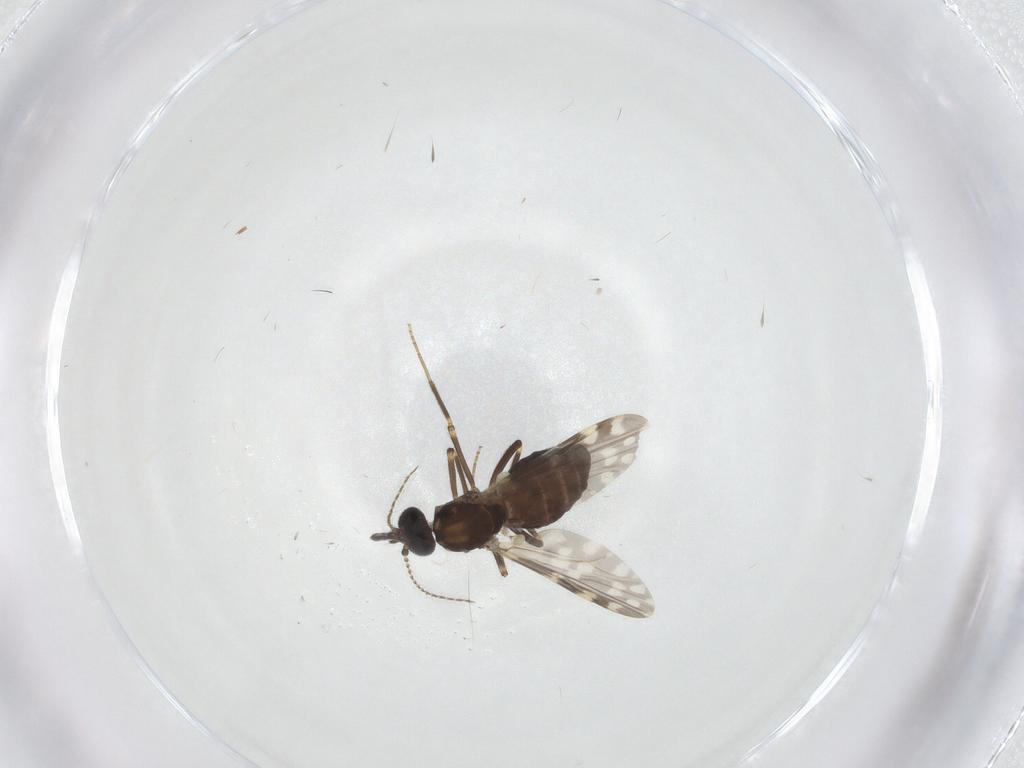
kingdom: Animalia
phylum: Arthropoda
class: Insecta
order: Diptera
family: Ceratopogonidae
